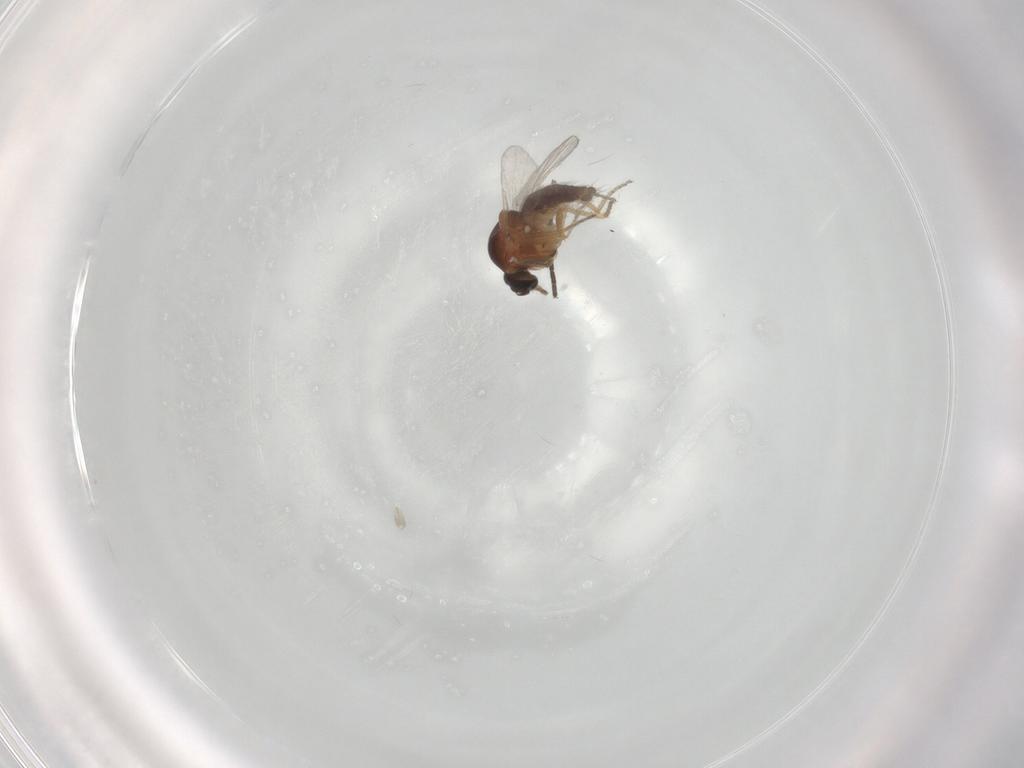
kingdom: Animalia
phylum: Arthropoda
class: Insecta
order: Diptera
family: Ceratopogonidae
